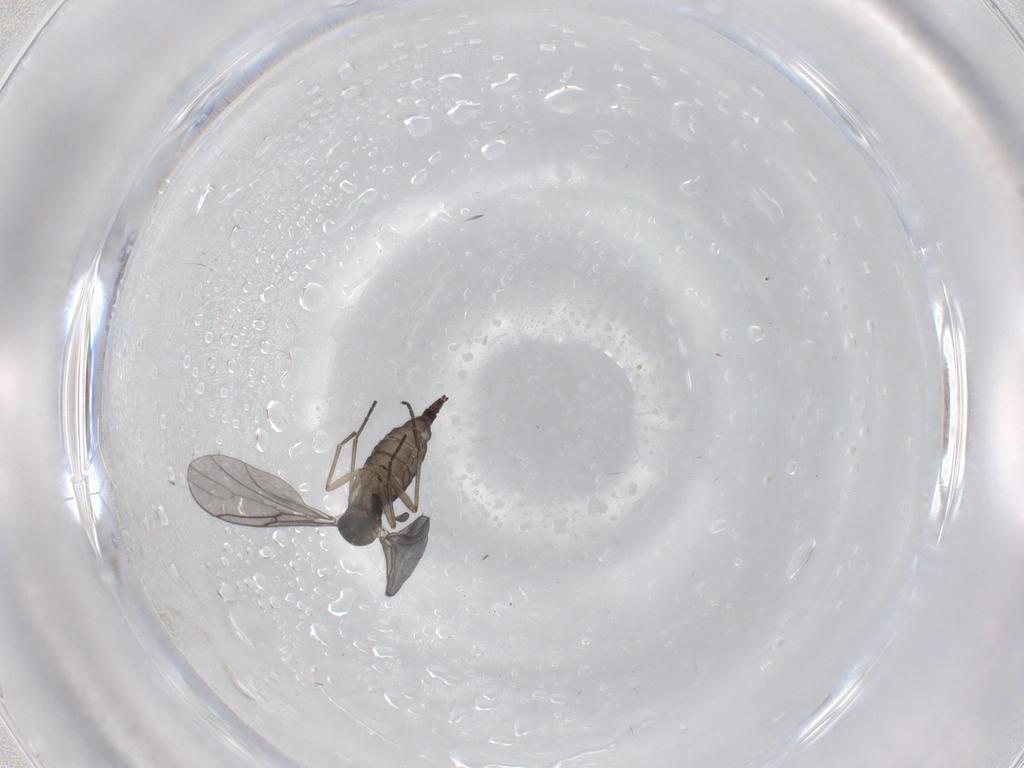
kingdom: Animalia
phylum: Arthropoda
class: Insecta
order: Diptera
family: Sciaridae
